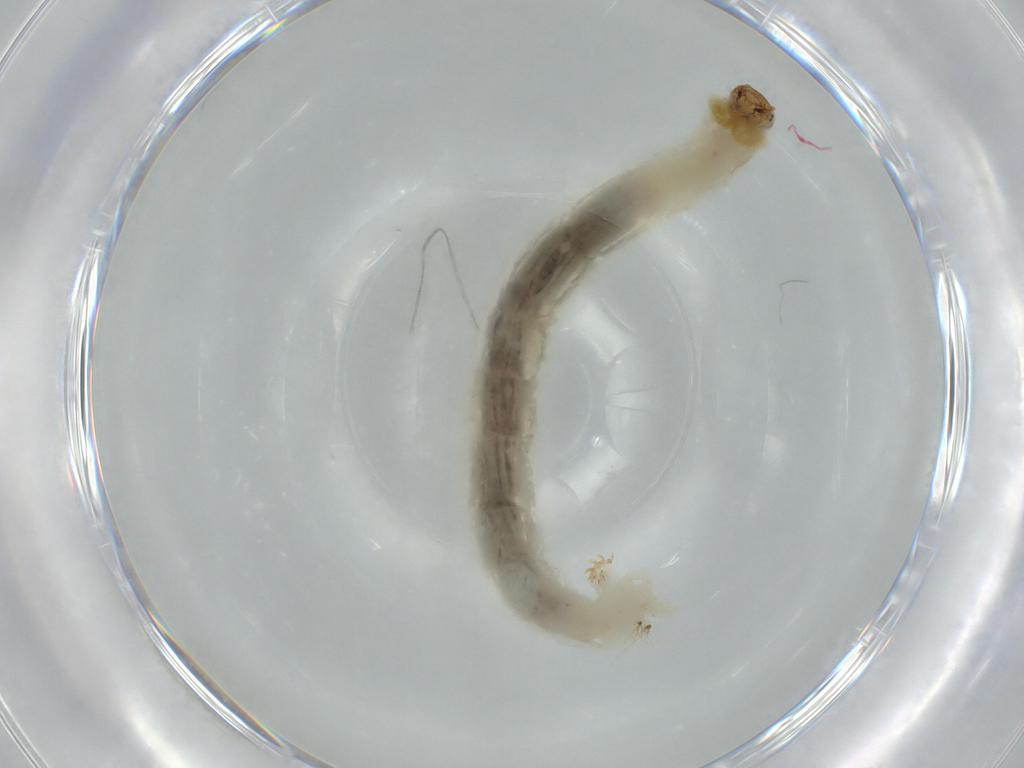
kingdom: Animalia
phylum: Arthropoda
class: Insecta
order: Diptera
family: Chironomidae
